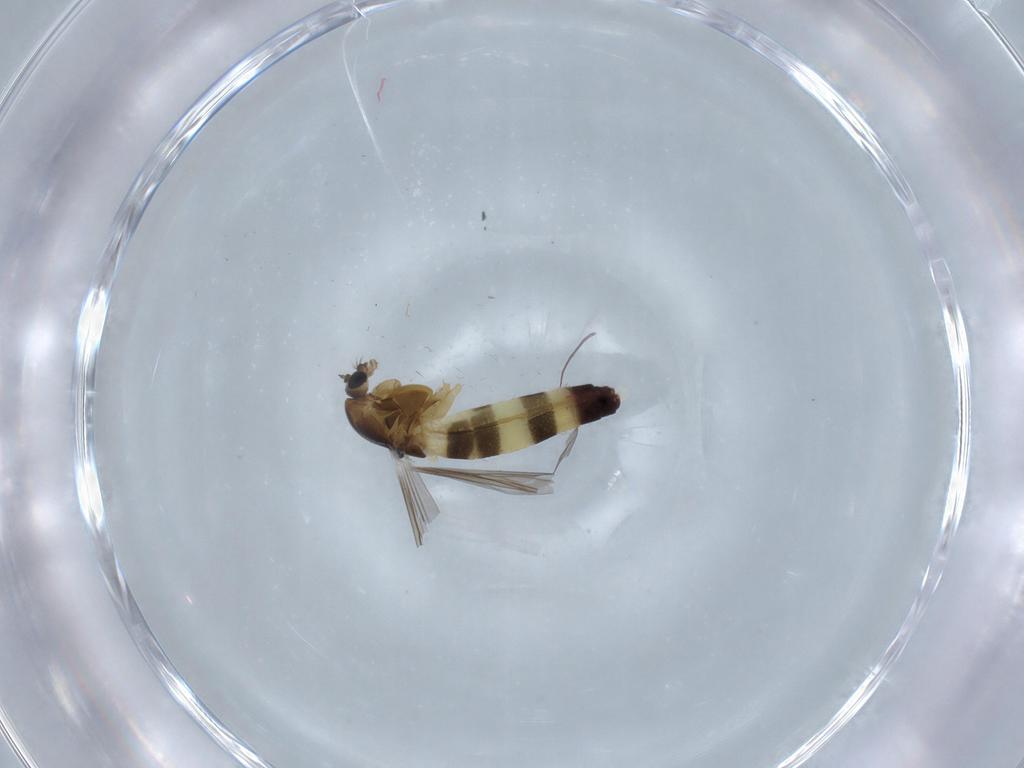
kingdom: Animalia
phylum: Arthropoda
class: Insecta
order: Diptera
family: Chironomidae
